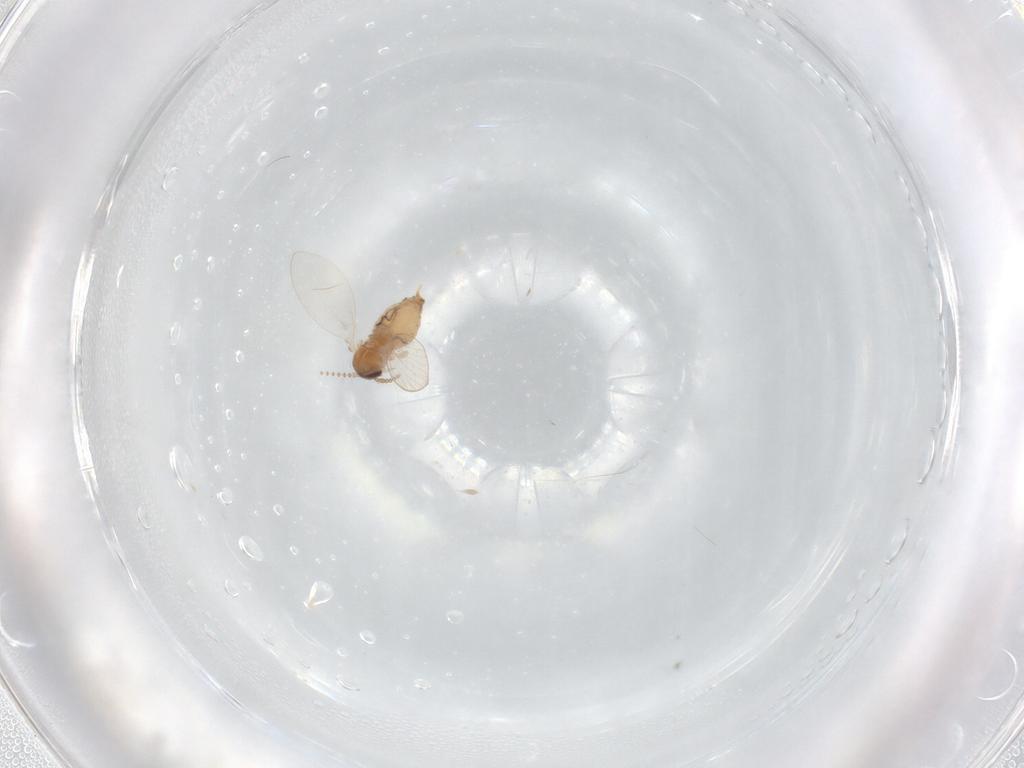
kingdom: Animalia
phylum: Arthropoda
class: Insecta
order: Diptera
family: Psychodidae
